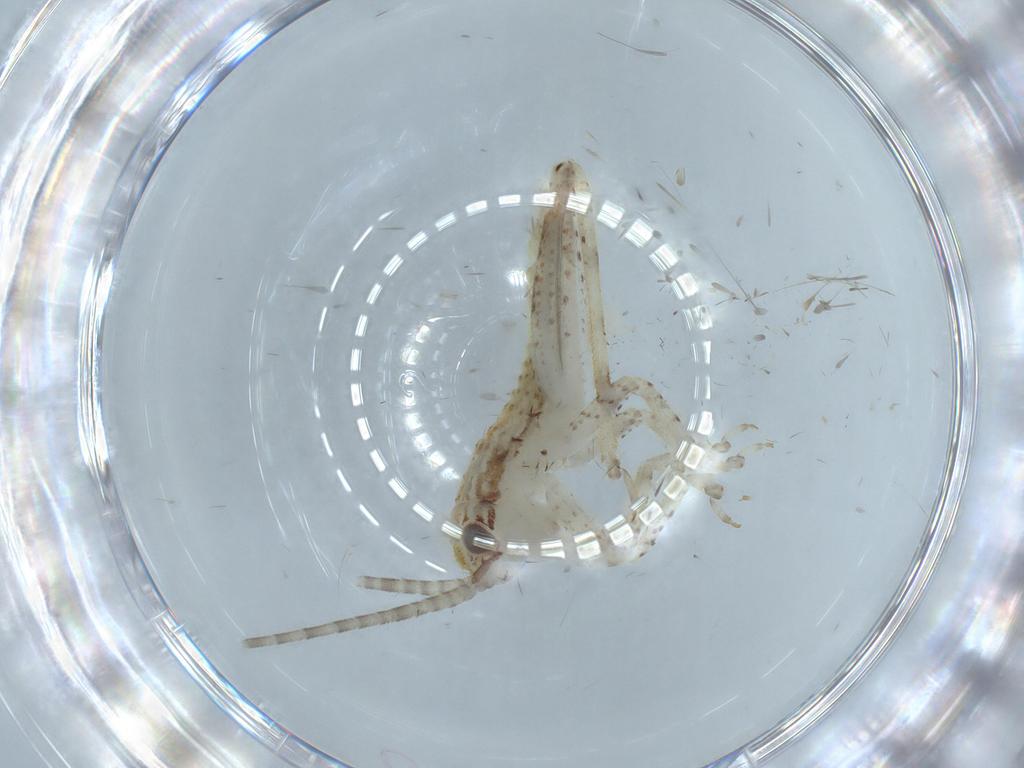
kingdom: Animalia
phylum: Arthropoda
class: Insecta
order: Orthoptera
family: Gryllidae
